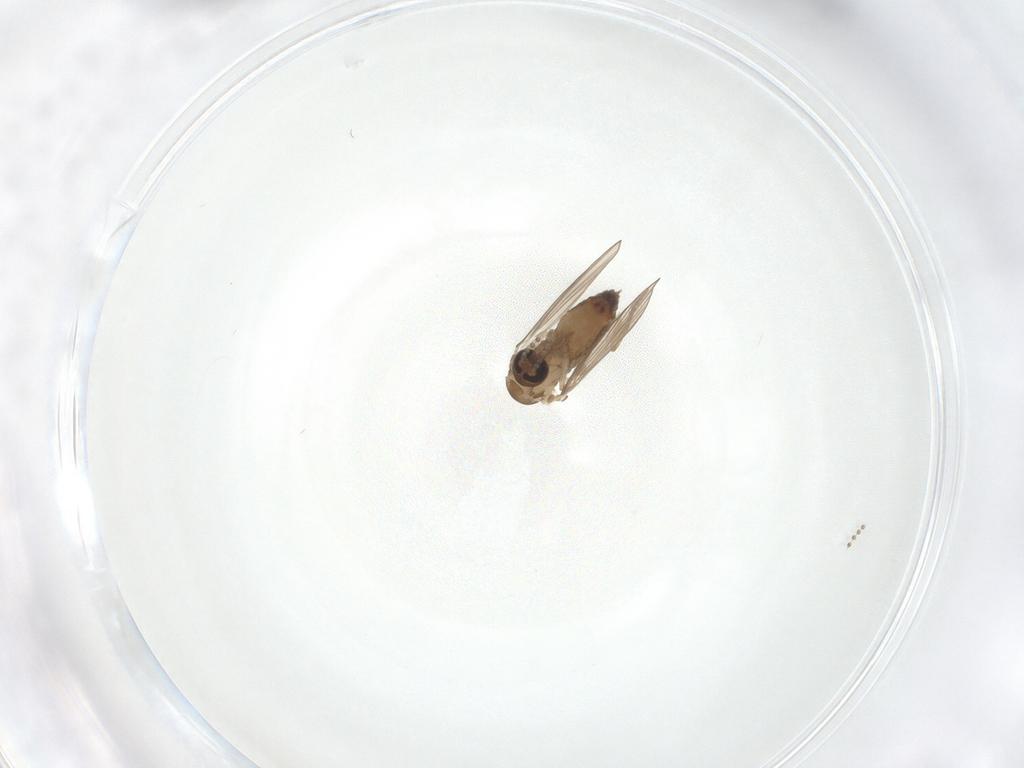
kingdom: Animalia
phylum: Arthropoda
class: Insecta
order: Diptera
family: Psychodidae
